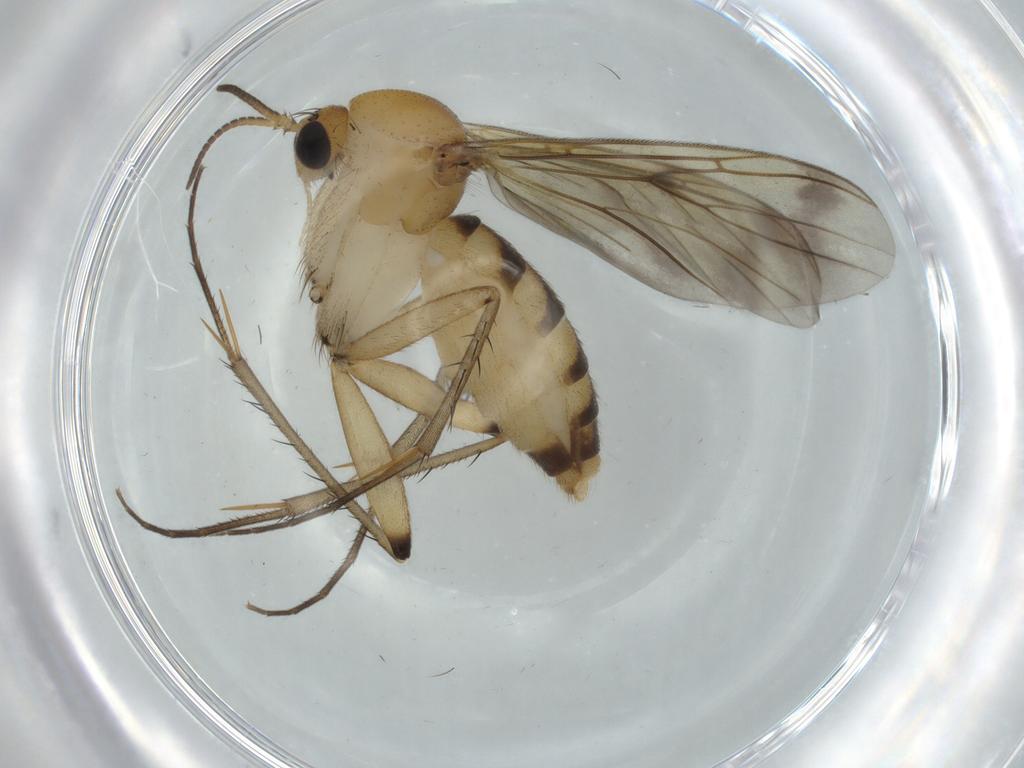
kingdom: Animalia
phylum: Arthropoda
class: Insecta
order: Diptera
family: Mycetophilidae
